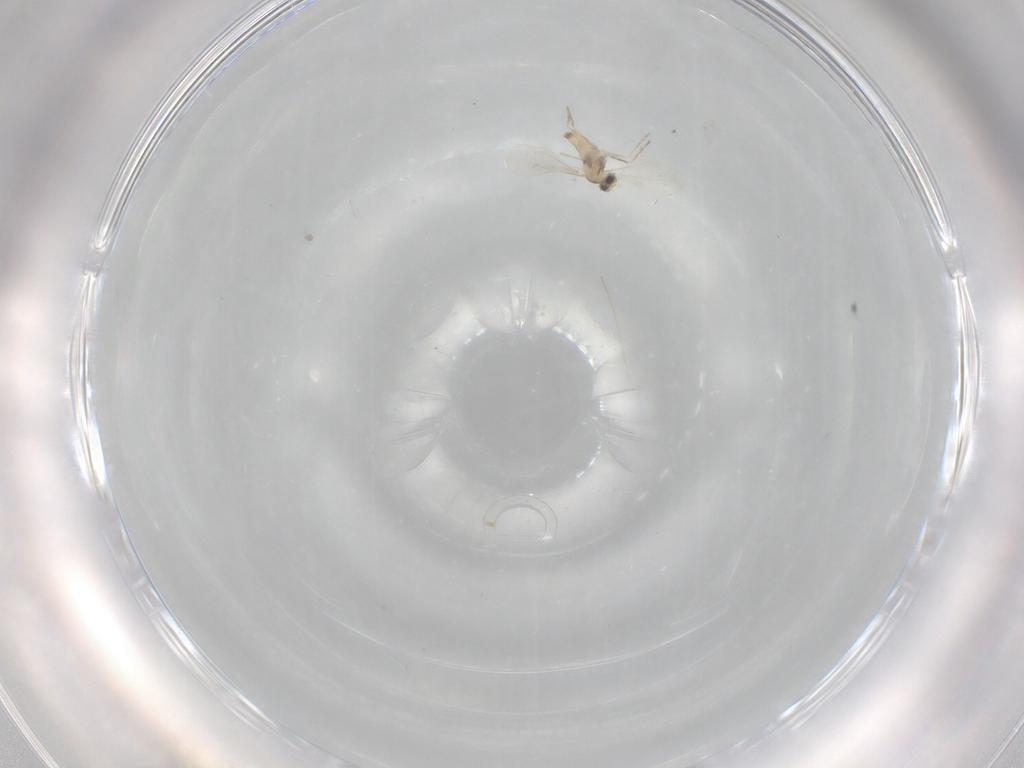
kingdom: Animalia
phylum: Arthropoda
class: Insecta
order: Diptera
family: Cecidomyiidae
